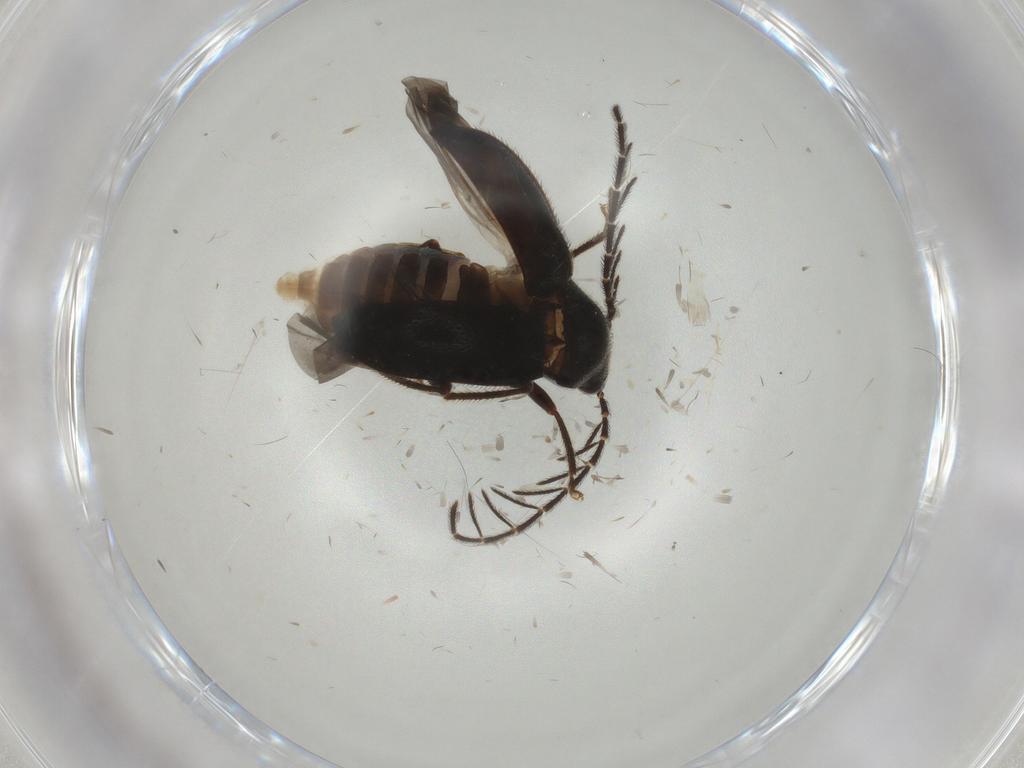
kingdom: Animalia
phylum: Arthropoda
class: Insecta
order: Coleoptera
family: Ptilodactylidae
